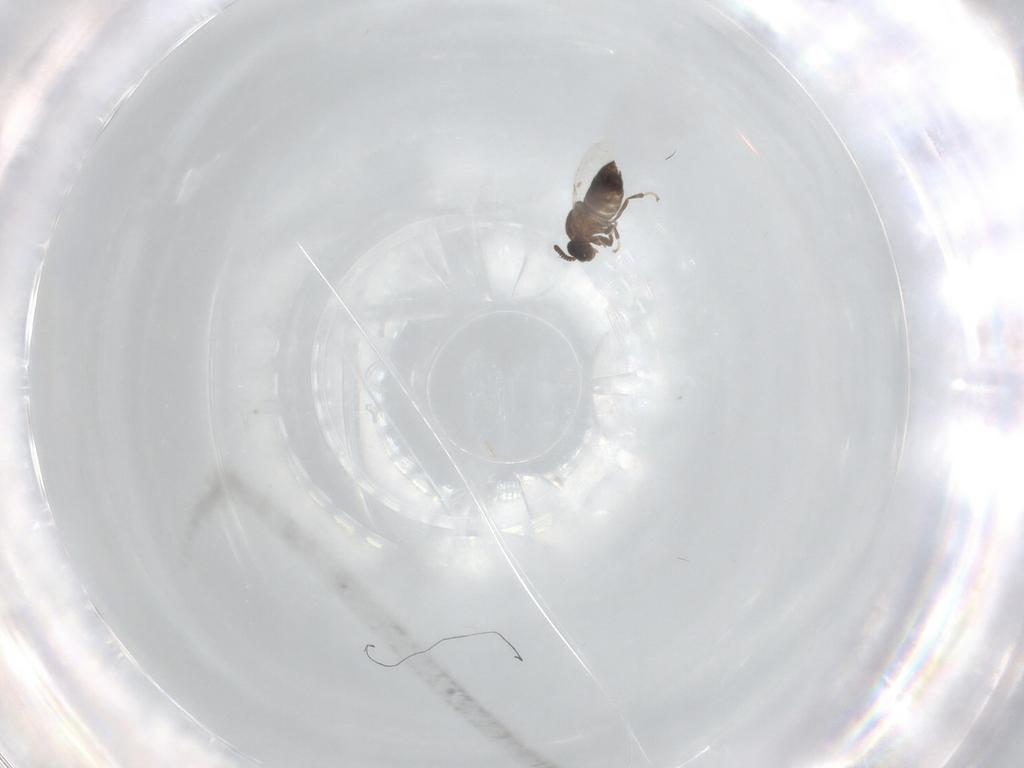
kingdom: Animalia
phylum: Arthropoda
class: Insecta
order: Diptera
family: Scatopsidae
